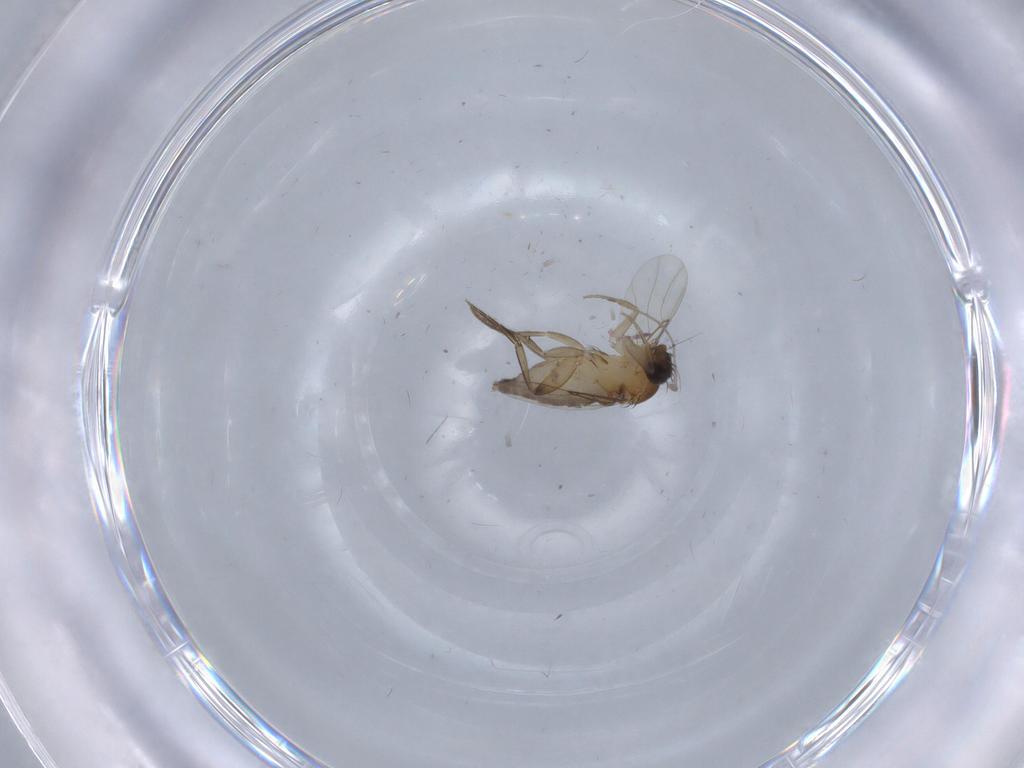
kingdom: Animalia
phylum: Arthropoda
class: Insecta
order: Diptera
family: Phoridae
